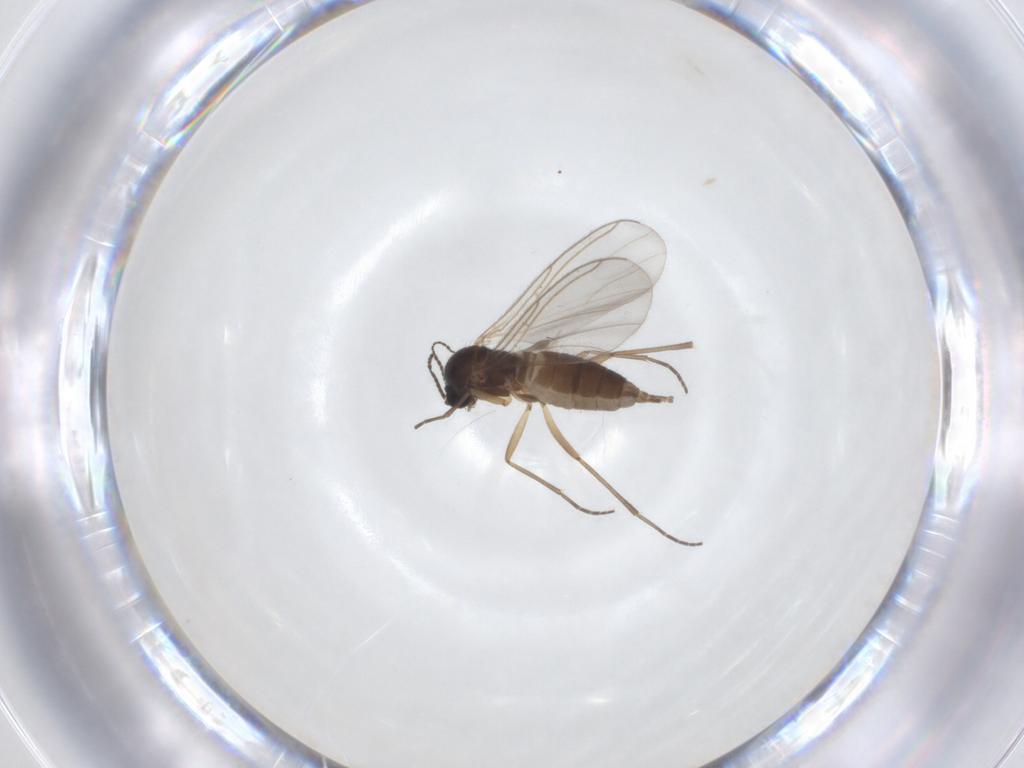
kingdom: Animalia
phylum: Arthropoda
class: Insecta
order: Diptera
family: Sciaridae
